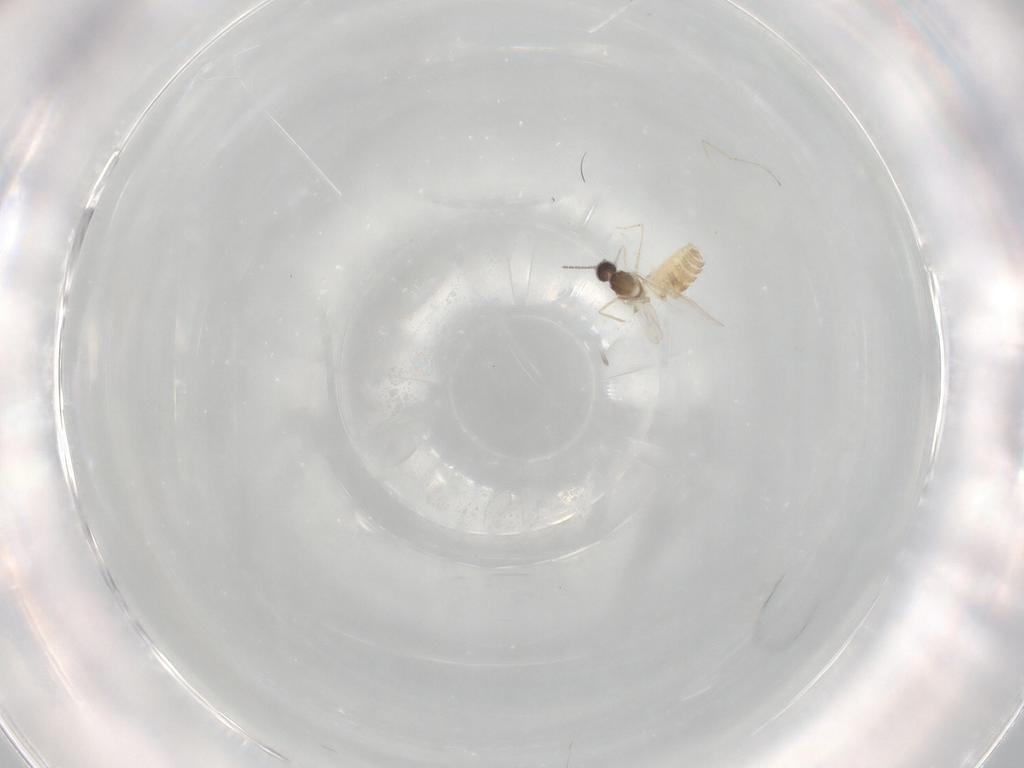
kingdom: Animalia
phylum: Arthropoda
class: Insecta
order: Diptera
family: Cecidomyiidae
